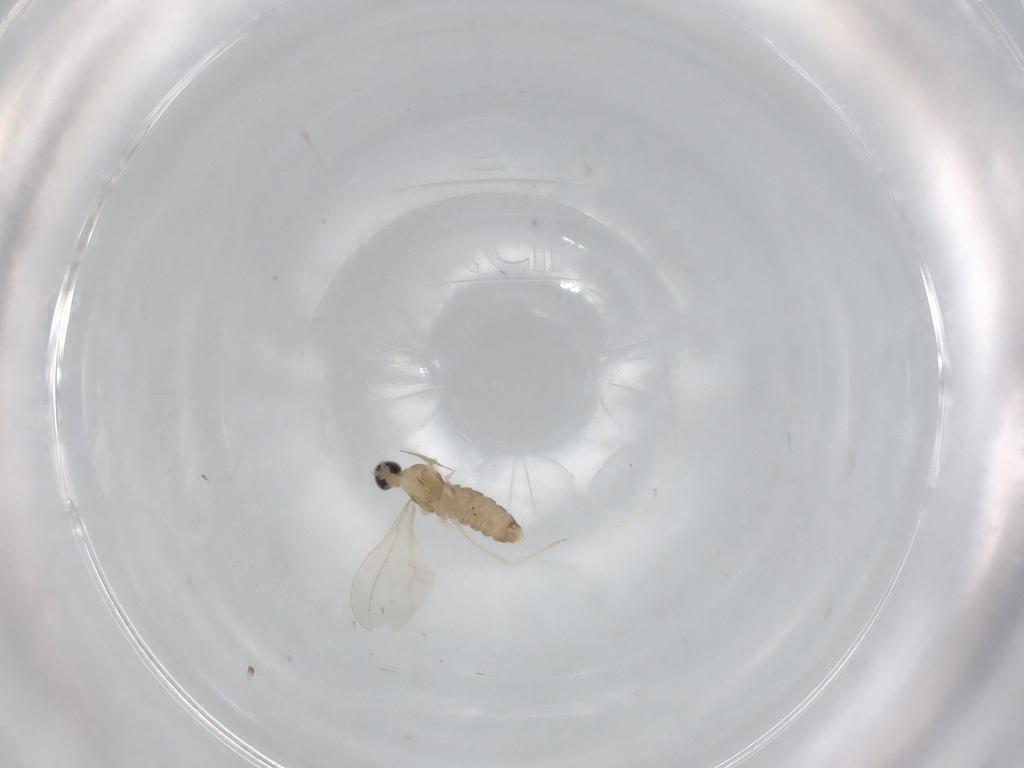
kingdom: Animalia
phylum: Arthropoda
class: Insecta
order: Diptera
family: Cecidomyiidae
